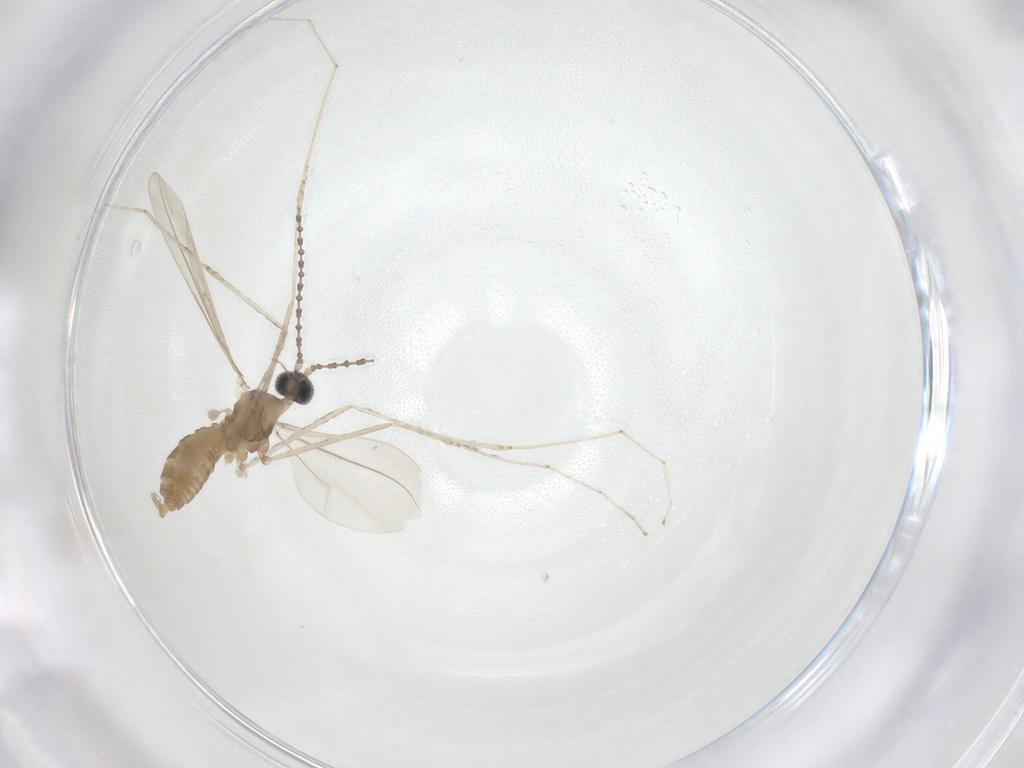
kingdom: Animalia
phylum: Arthropoda
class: Insecta
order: Diptera
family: Cecidomyiidae
